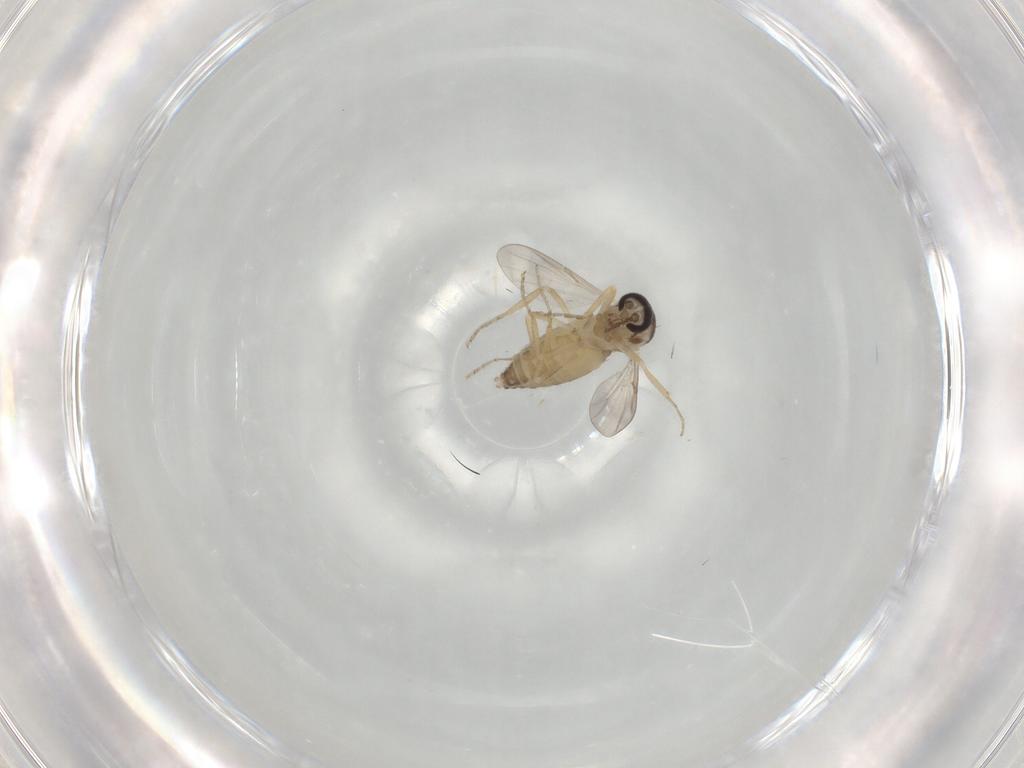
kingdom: Animalia
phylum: Arthropoda
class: Insecta
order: Diptera
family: Ceratopogonidae
